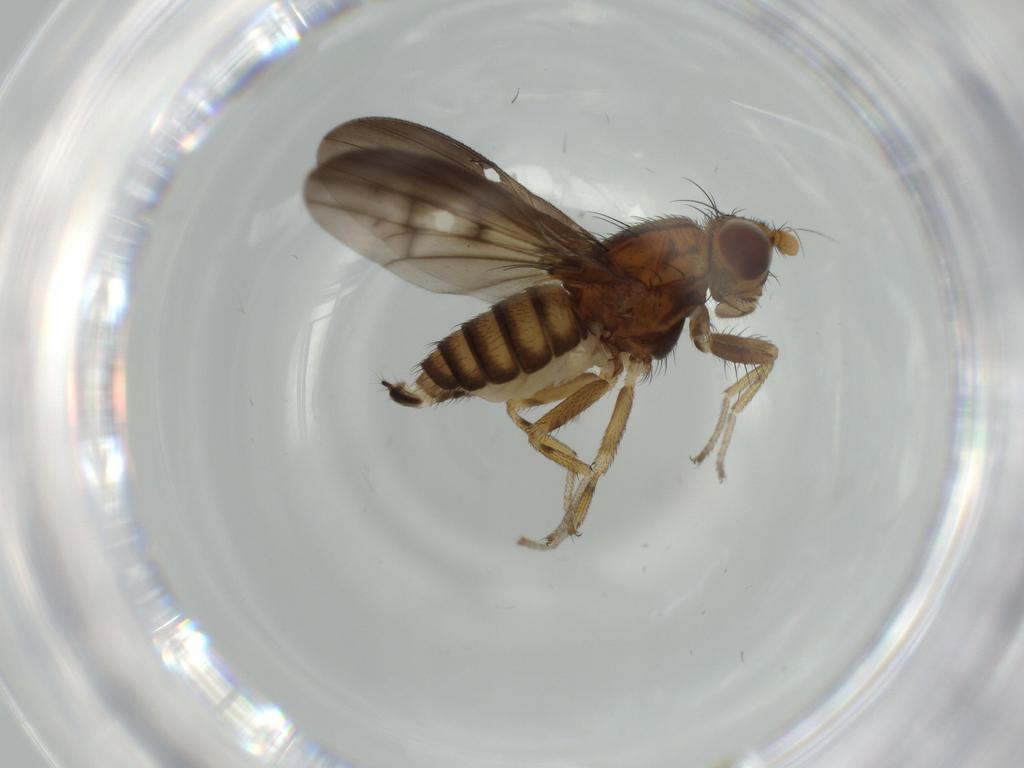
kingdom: Animalia
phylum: Arthropoda
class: Insecta
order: Diptera
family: Lauxaniidae
